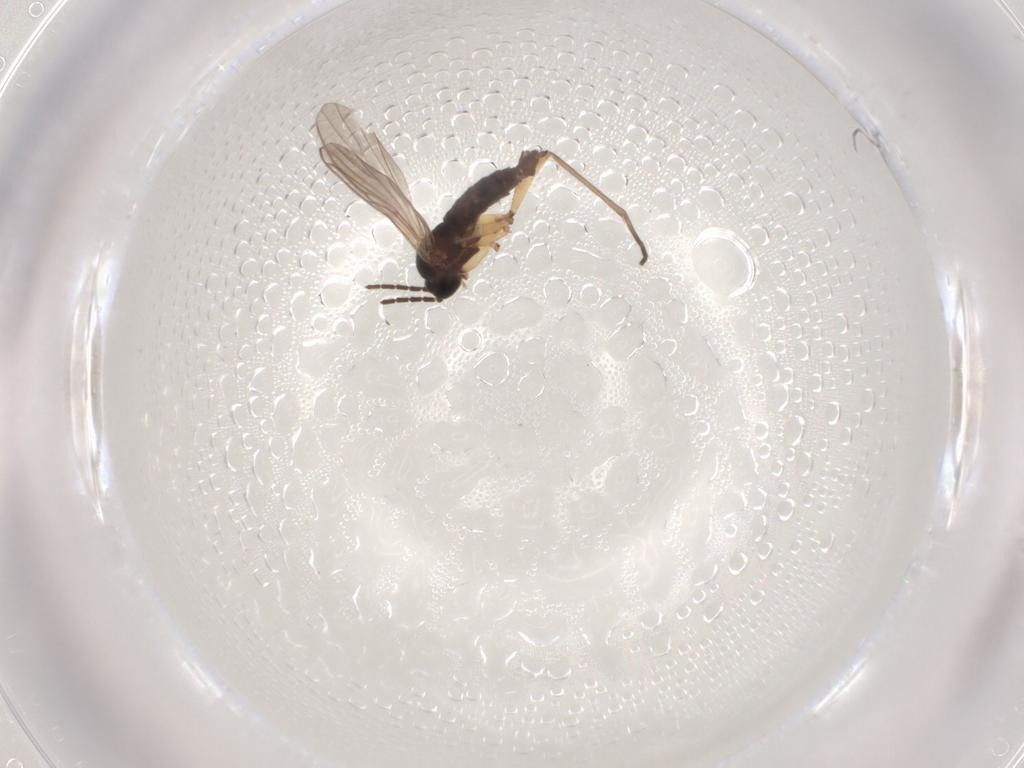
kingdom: Animalia
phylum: Arthropoda
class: Insecta
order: Diptera
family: Sciaridae
